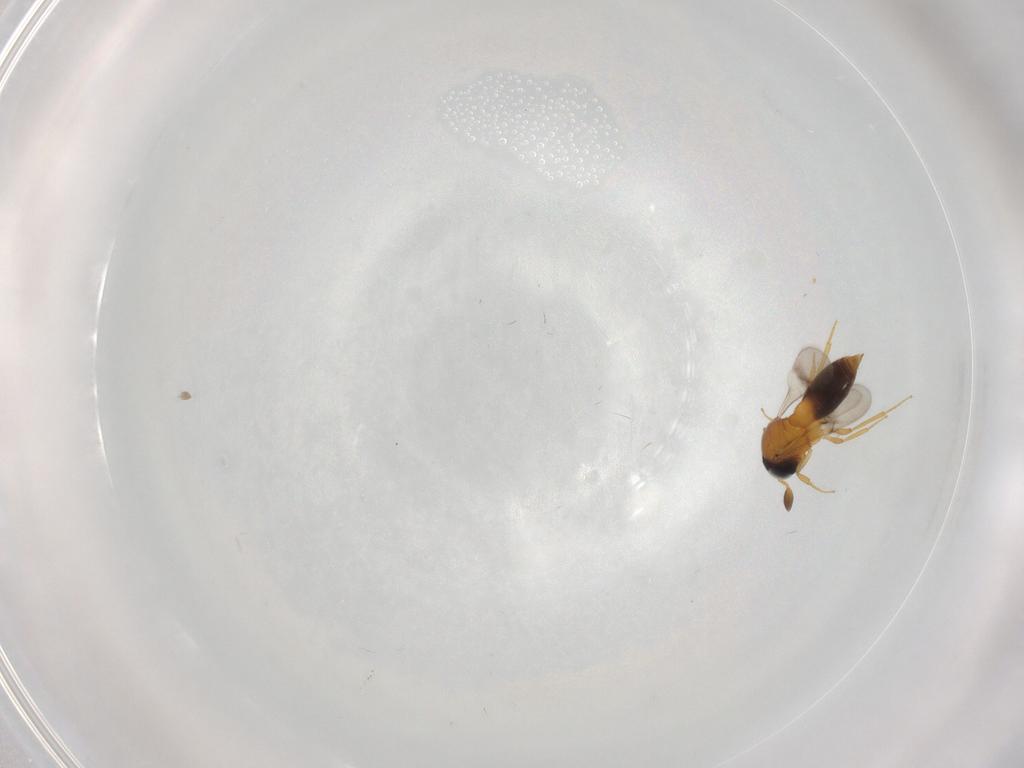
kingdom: Animalia
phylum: Arthropoda
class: Insecta
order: Hymenoptera
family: Scelionidae
